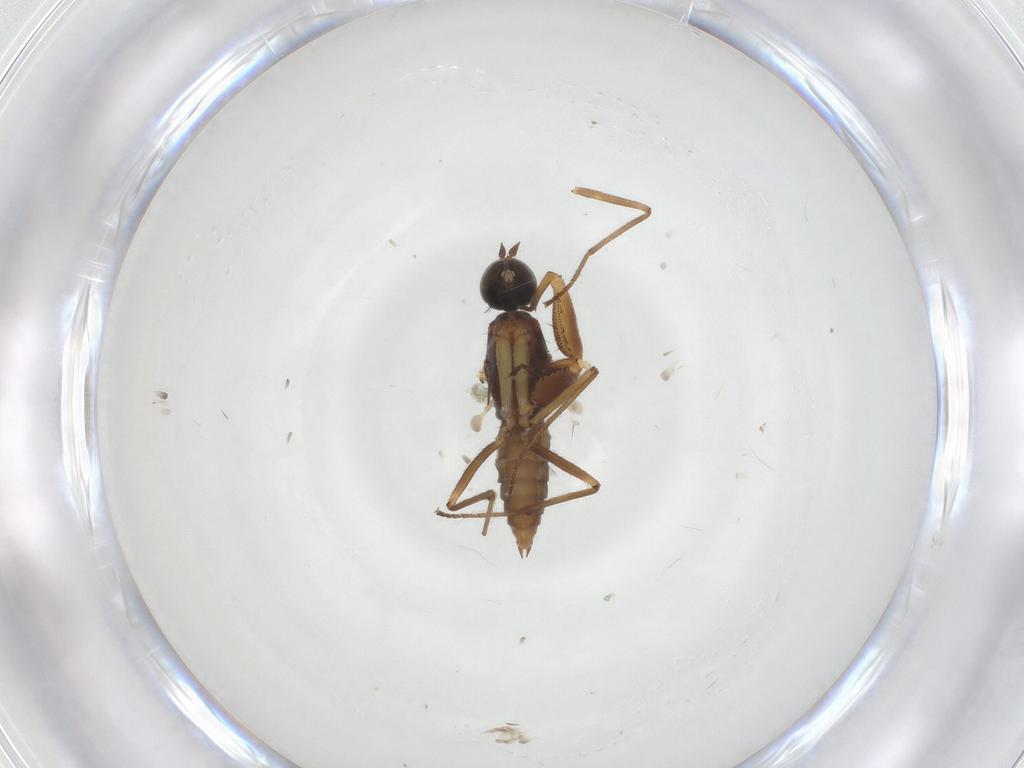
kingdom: Animalia
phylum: Arthropoda
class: Insecta
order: Diptera
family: Empididae
